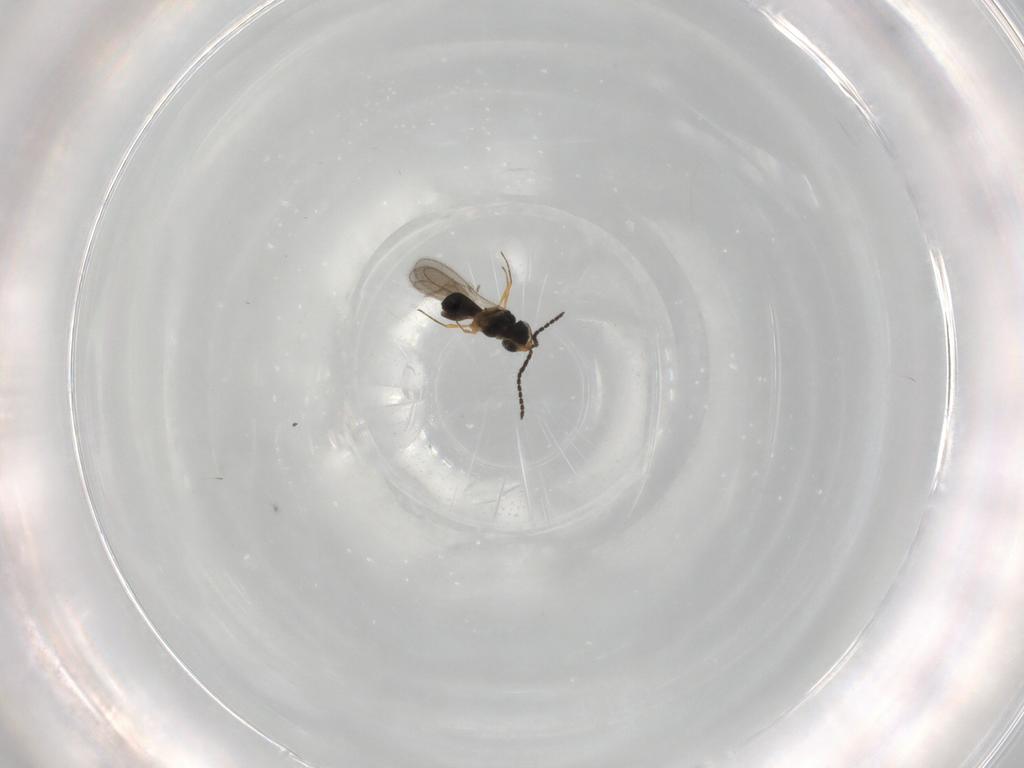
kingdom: Animalia
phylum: Arthropoda
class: Insecta
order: Hymenoptera
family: Scelionidae
